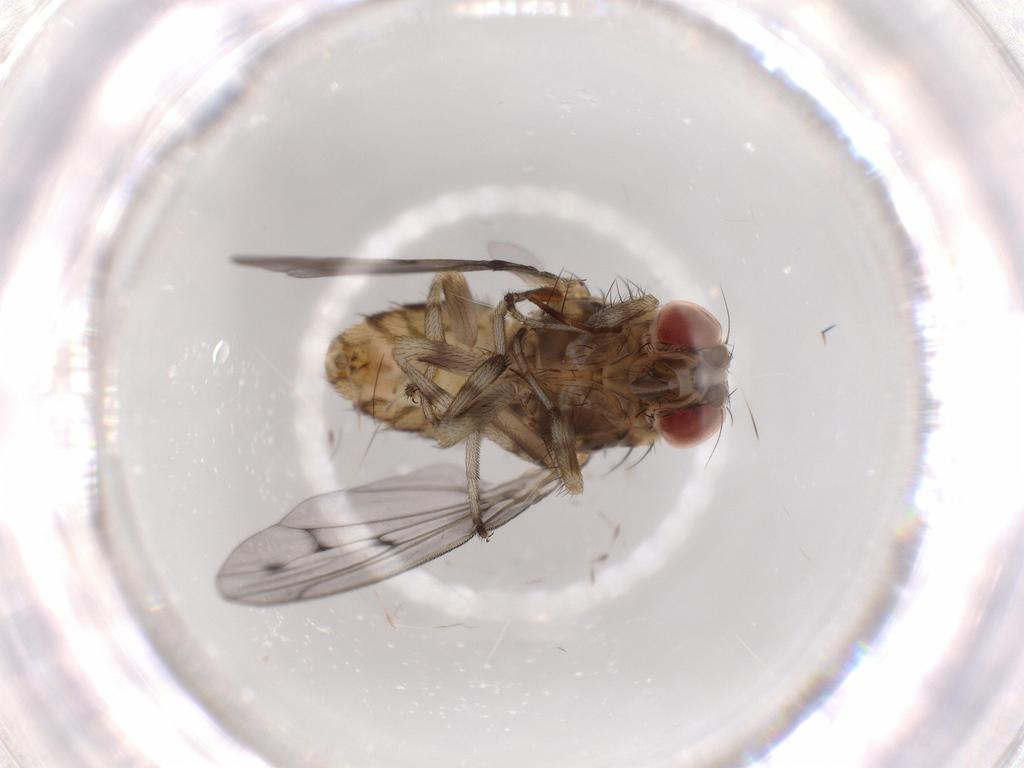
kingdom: Animalia
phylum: Arthropoda
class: Insecta
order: Diptera
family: Drosophilidae
